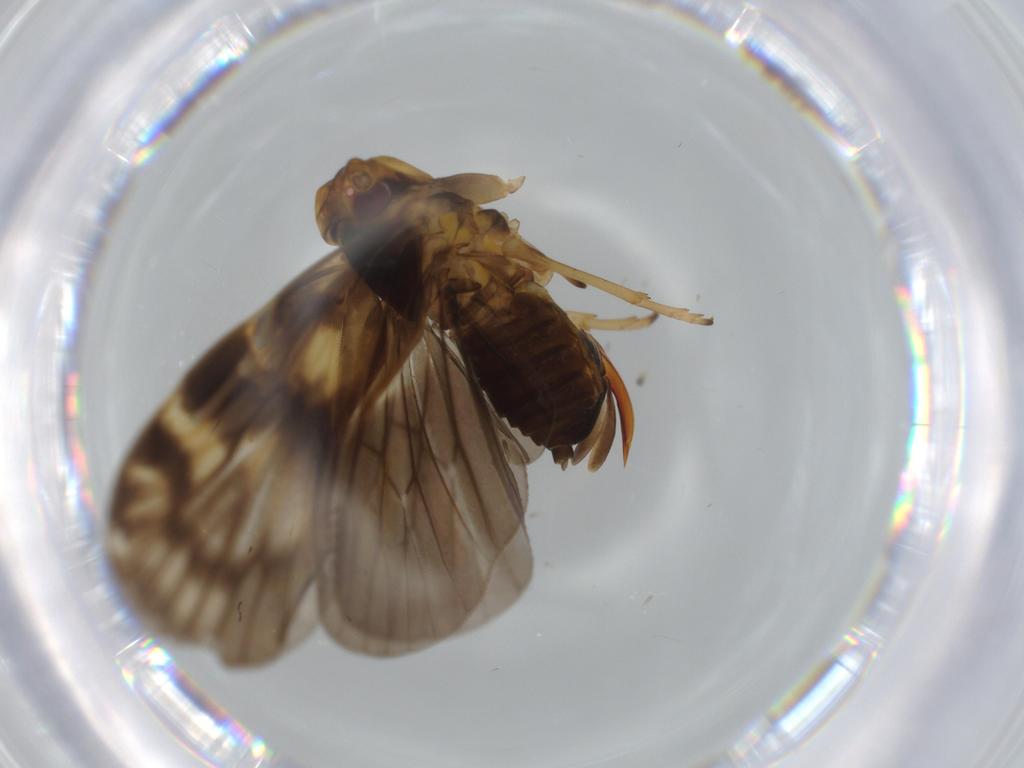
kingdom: Animalia
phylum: Arthropoda
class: Insecta
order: Hemiptera
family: Cixiidae
